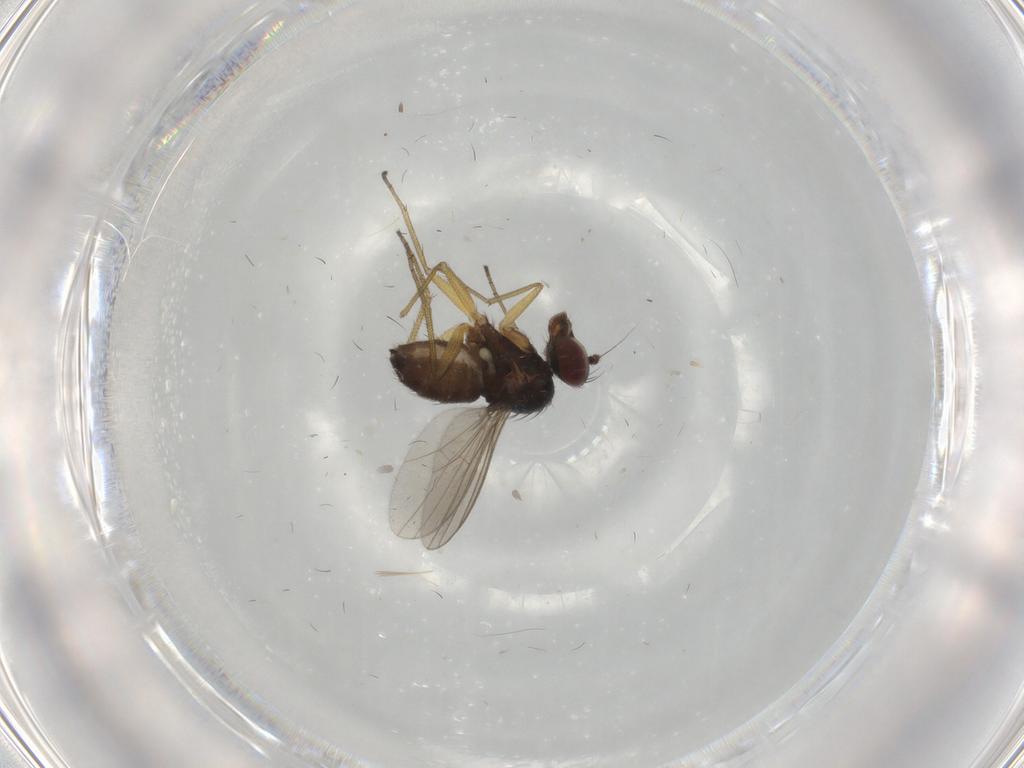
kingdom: Animalia
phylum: Arthropoda
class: Insecta
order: Diptera
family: Dolichopodidae
